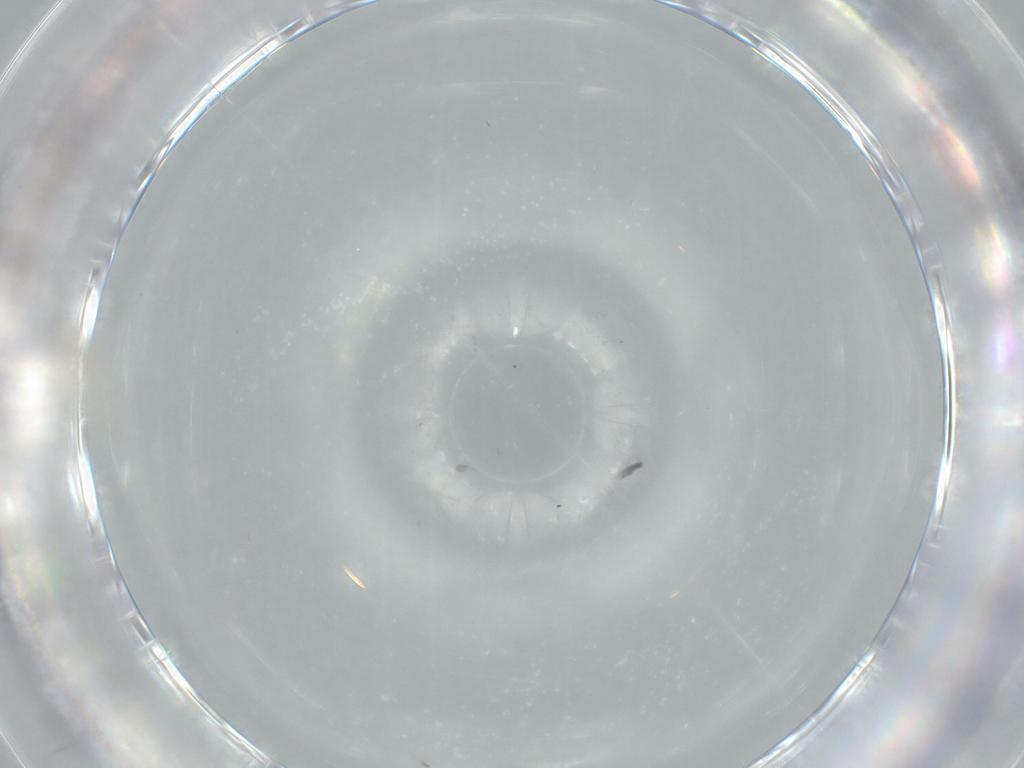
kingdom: Animalia
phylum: Arthropoda
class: Insecta
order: Diptera
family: Cecidomyiidae
